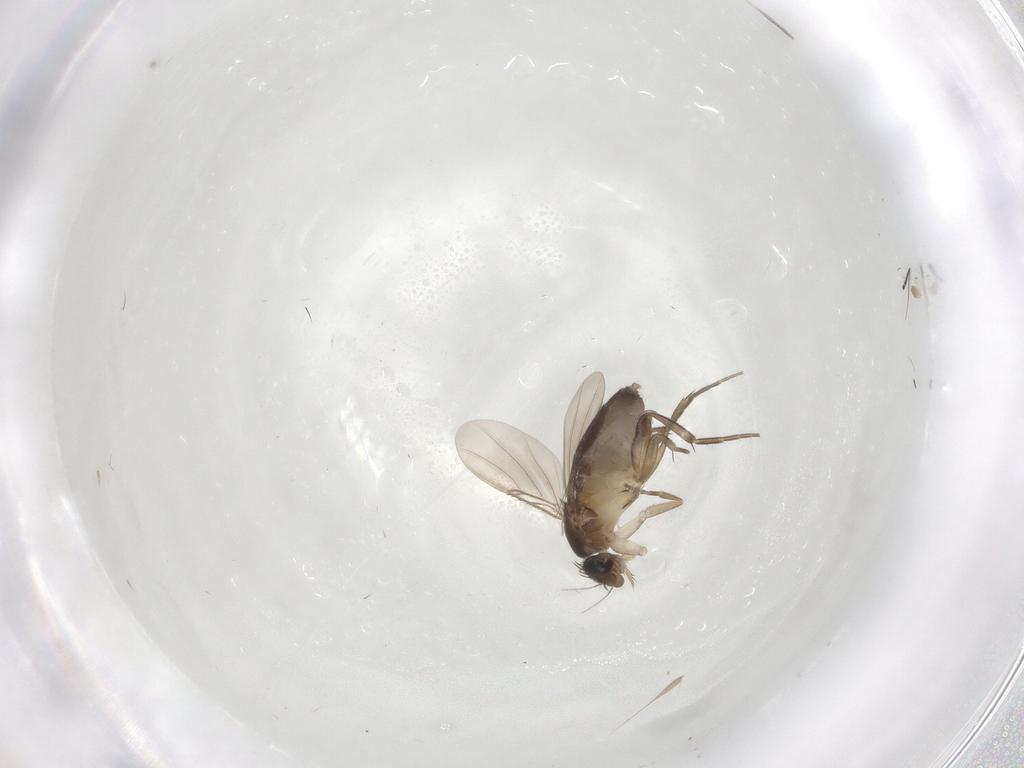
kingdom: Animalia
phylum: Arthropoda
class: Insecta
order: Diptera
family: Phoridae
